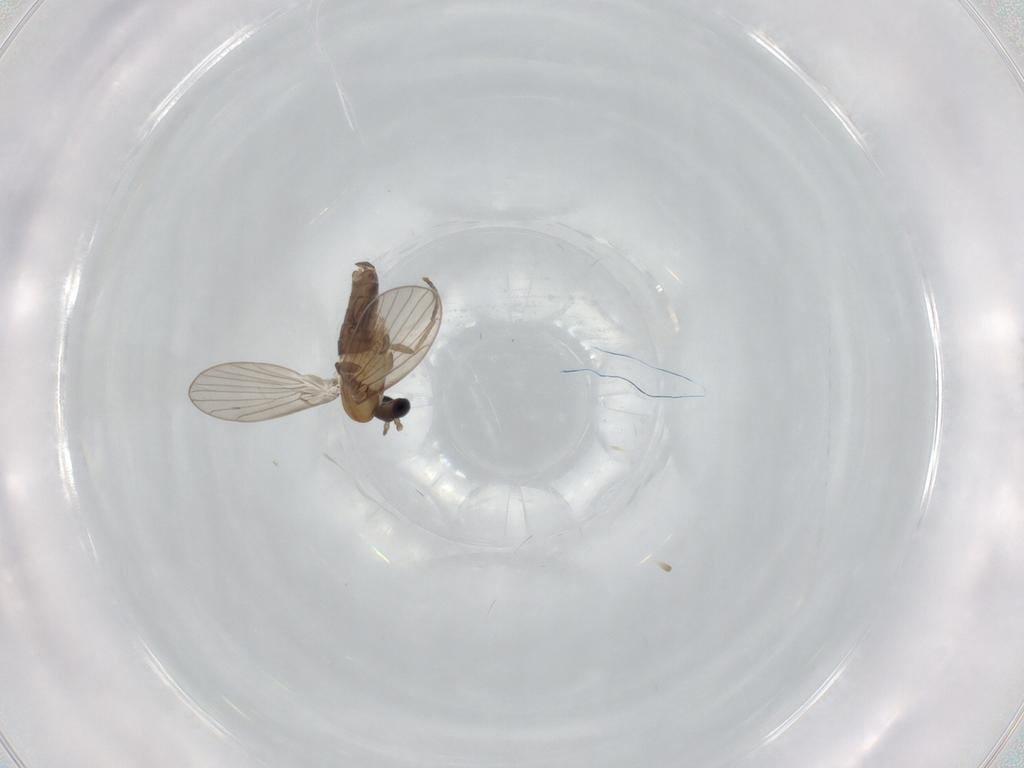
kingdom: Animalia
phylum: Arthropoda
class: Insecta
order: Diptera
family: Psychodidae
